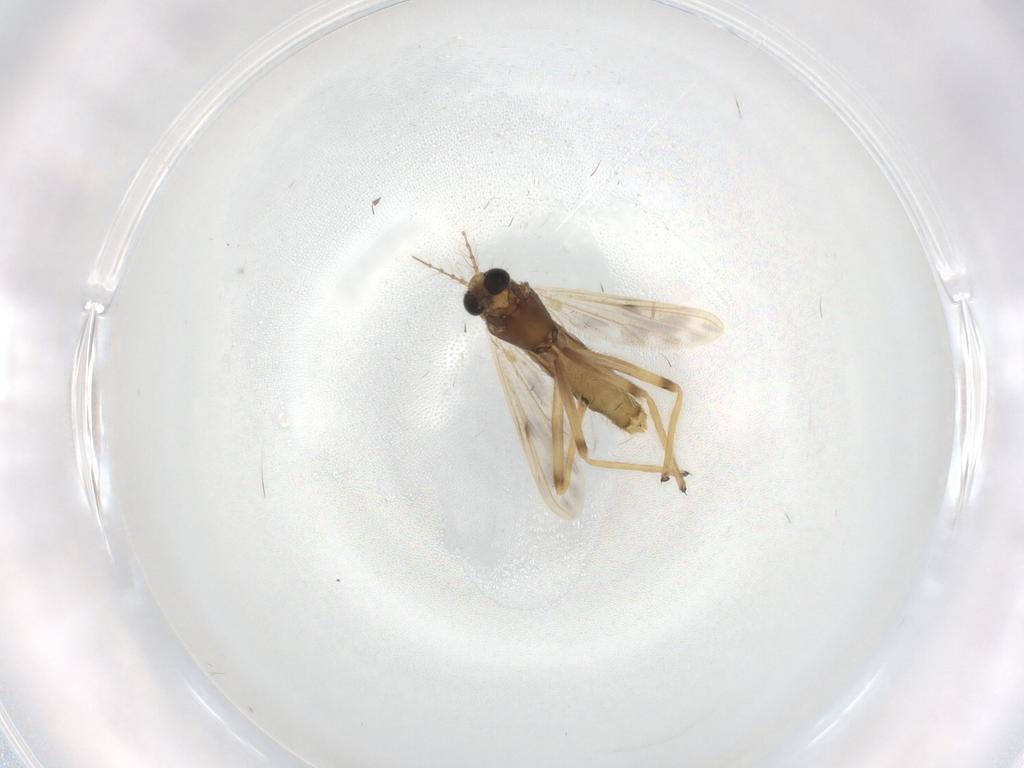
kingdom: Animalia
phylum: Arthropoda
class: Insecta
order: Diptera
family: Chironomidae
